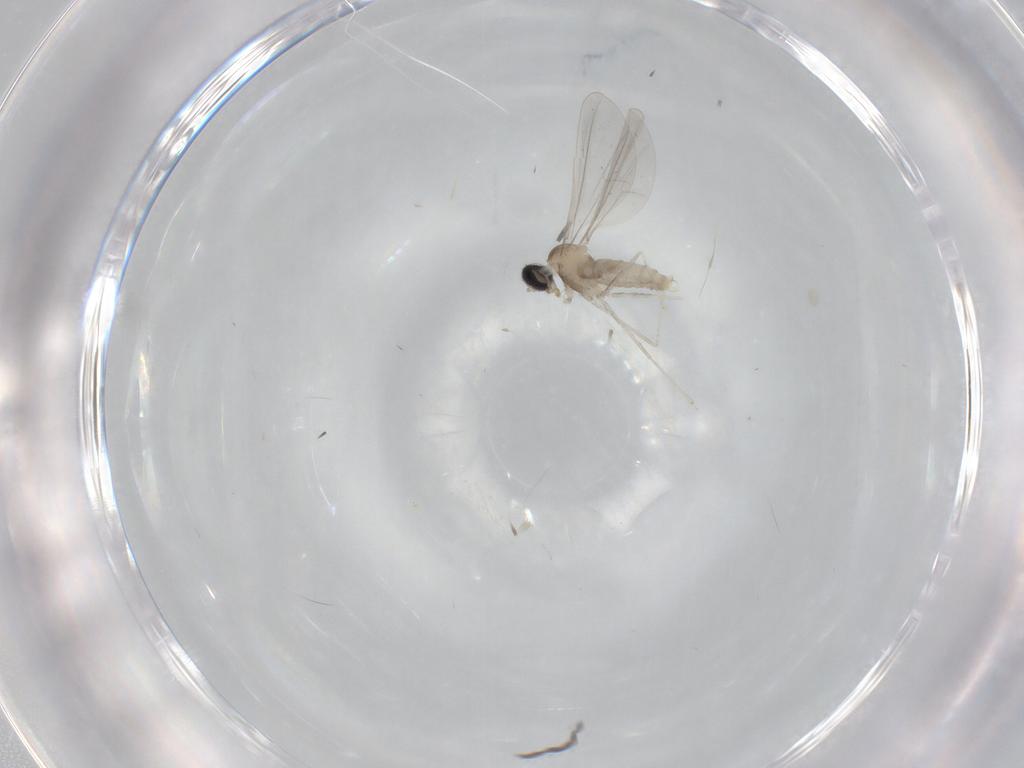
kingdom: Animalia
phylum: Arthropoda
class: Insecta
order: Diptera
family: Cecidomyiidae
